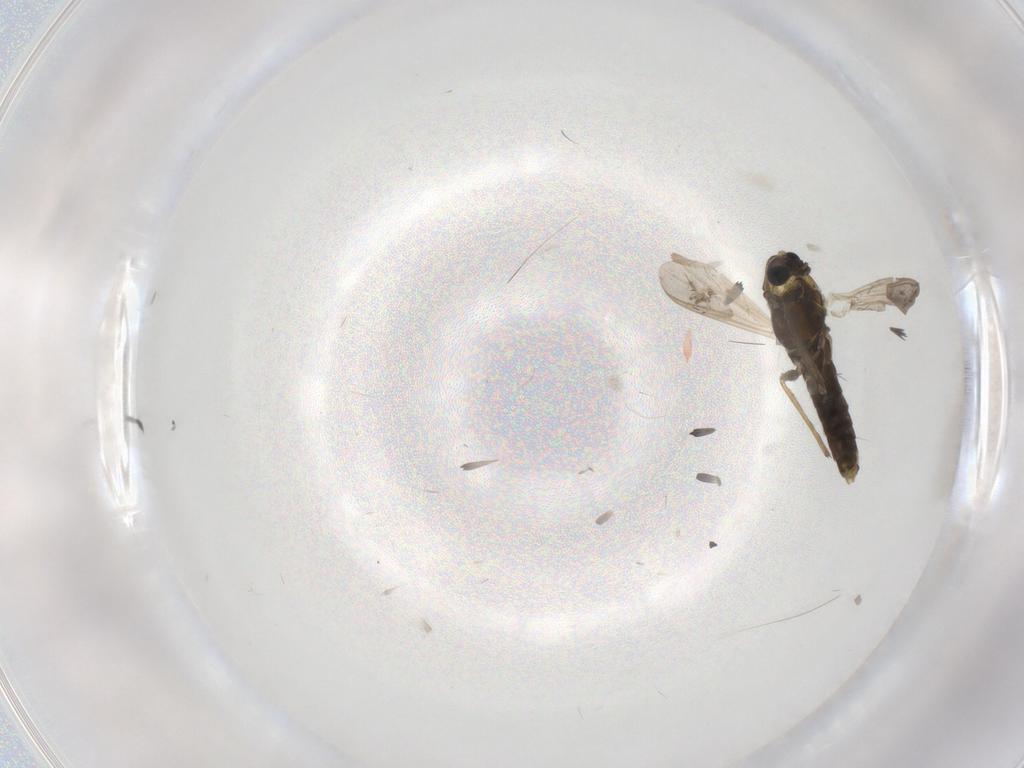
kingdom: Animalia
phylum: Arthropoda
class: Insecta
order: Diptera
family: Chironomidae
